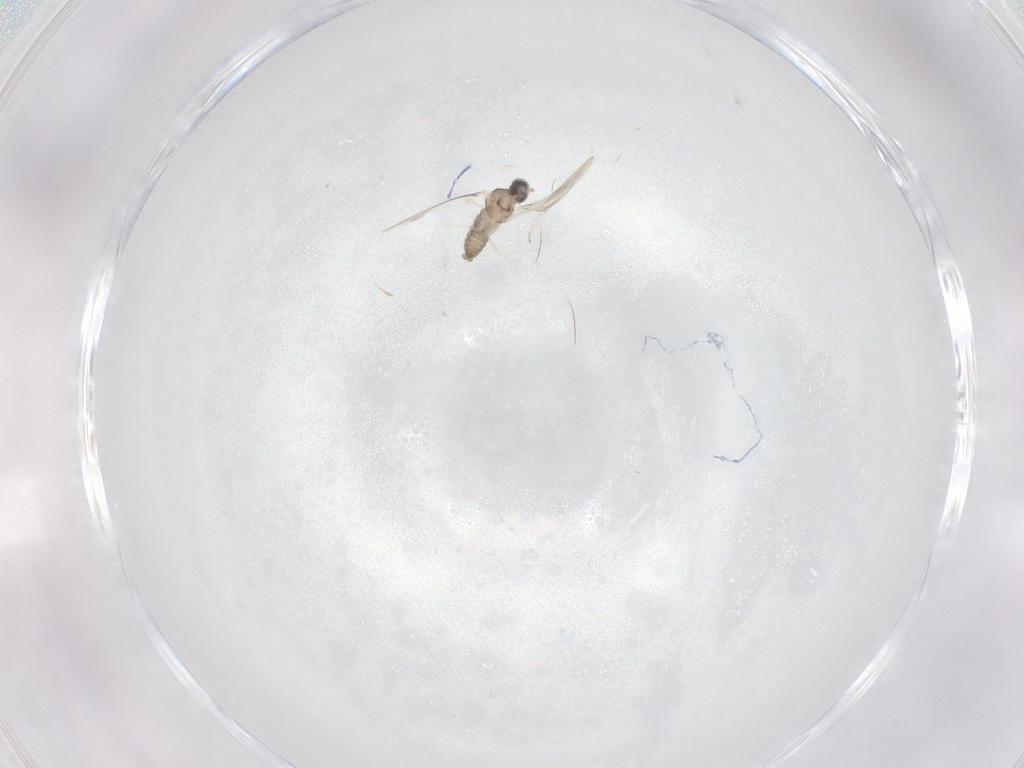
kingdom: Animalia
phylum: Arthropoda
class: Insecta
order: Diptera
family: Cecidomyiidae
